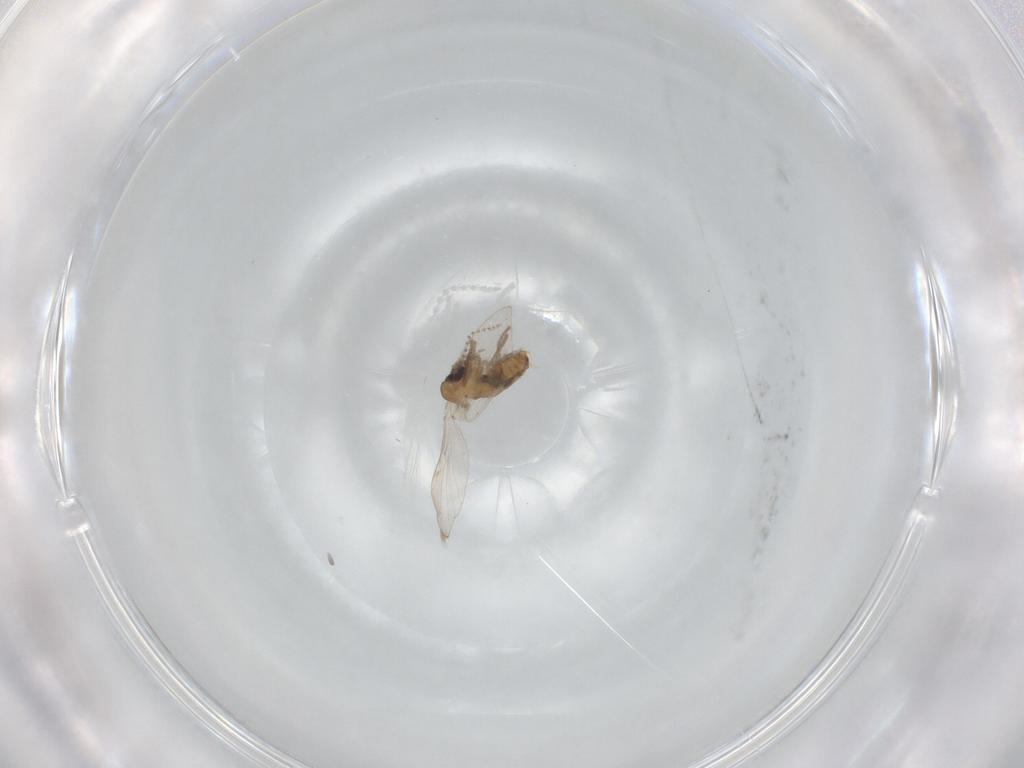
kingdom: Animalia
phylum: Arthropoda
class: Insecta
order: Diptera
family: Psychodidae
